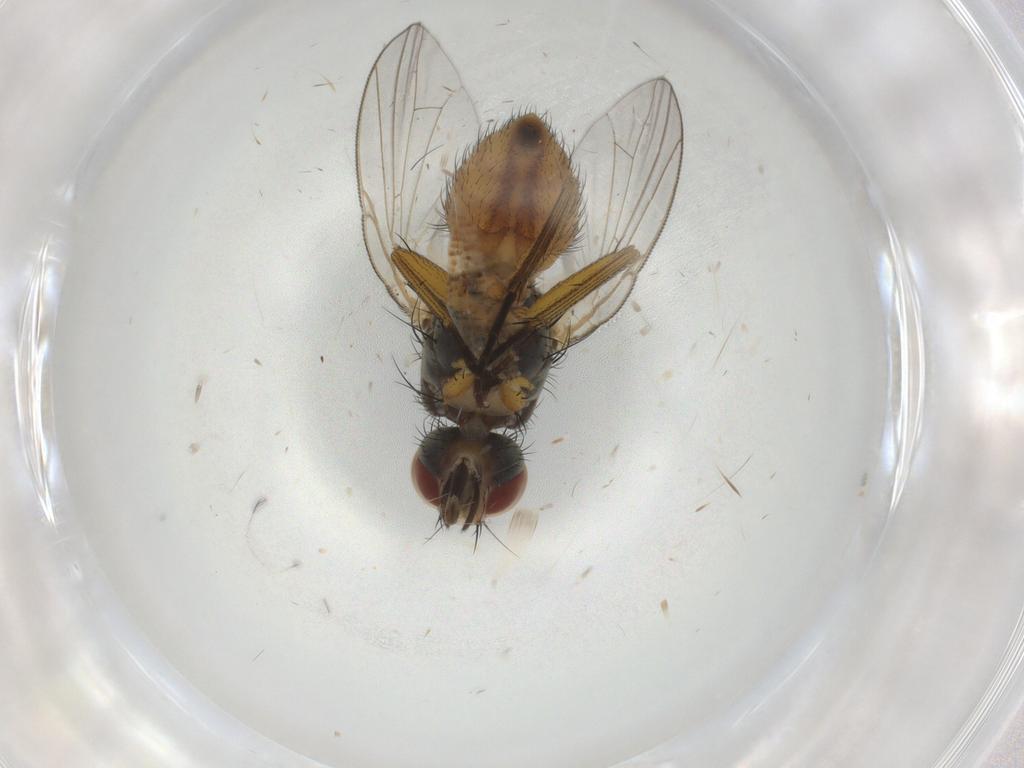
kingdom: Animalia
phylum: Arthropoda
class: Insecta
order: Diptera
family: Muscidae
